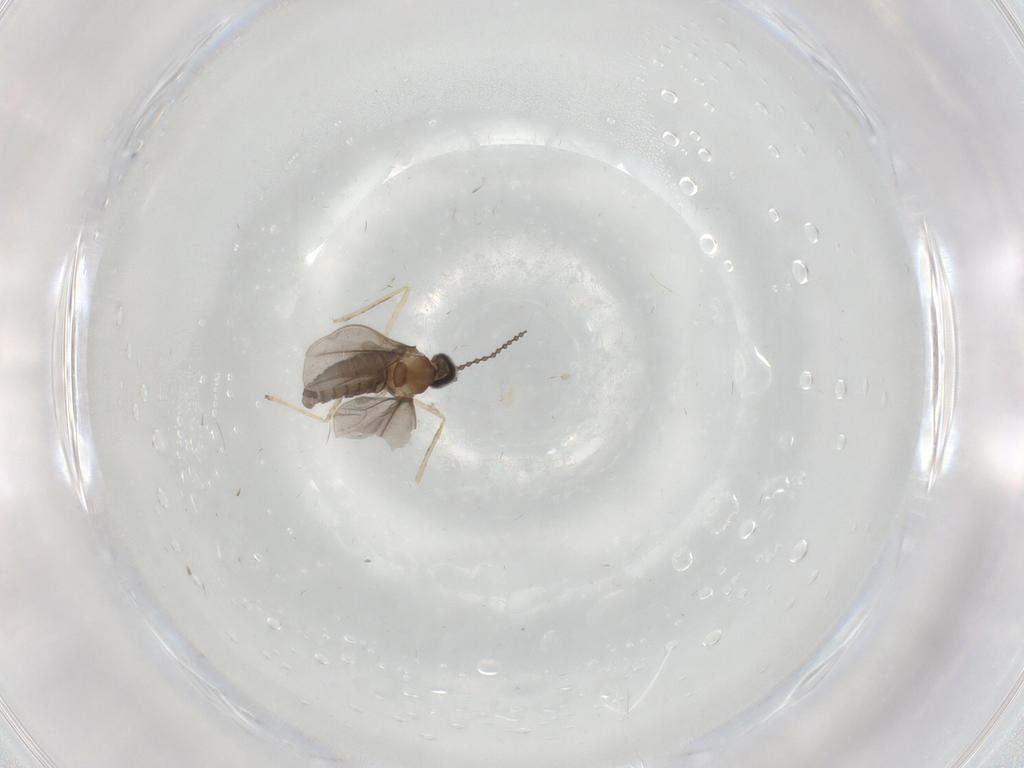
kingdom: Animalia
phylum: Arthropoda
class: Insecta
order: Diptera
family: Cecidomyiidae
